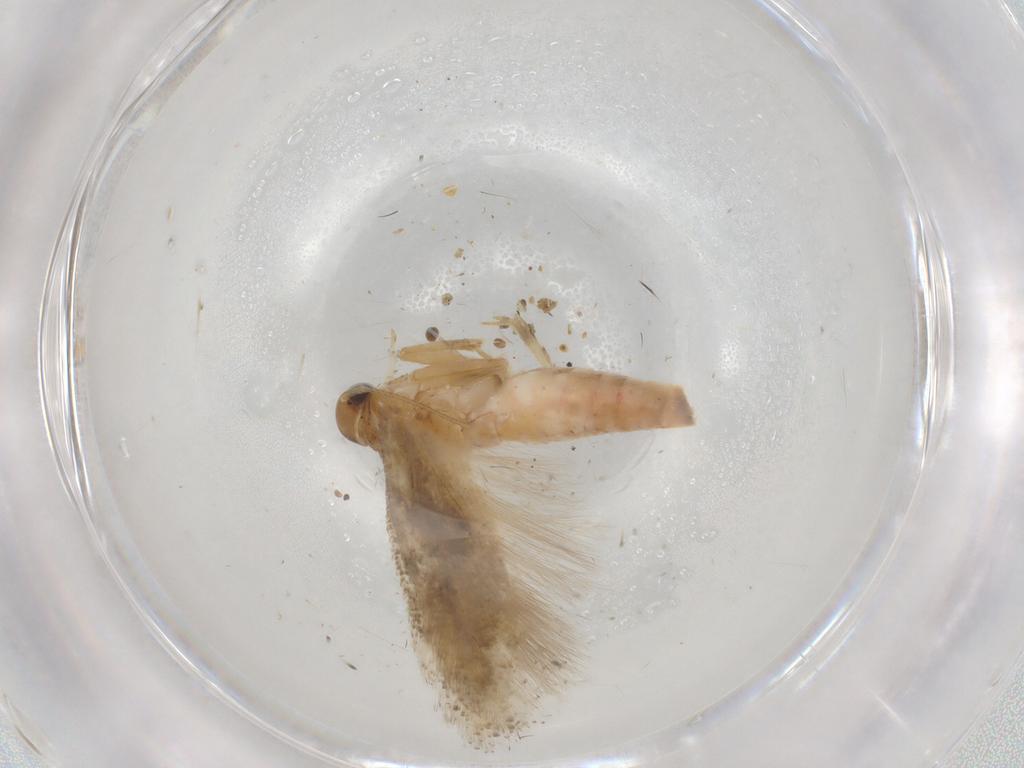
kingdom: Animalia
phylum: Arthropoda
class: Insecta
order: Lepidoptera
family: Gelechiidae
